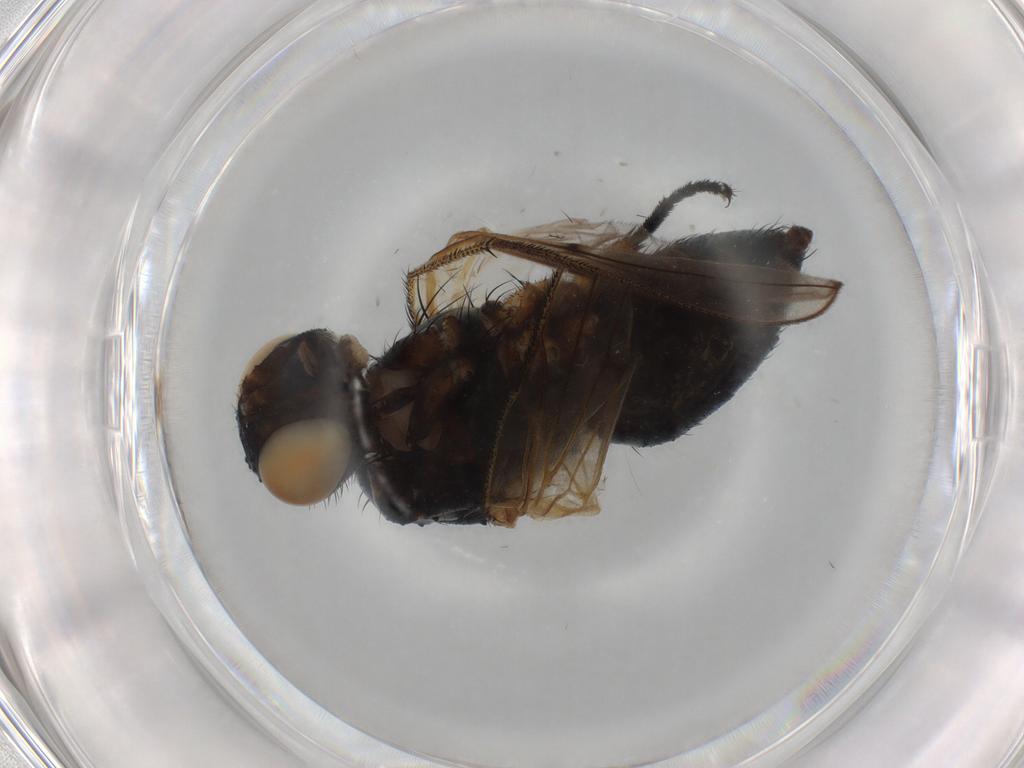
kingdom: Animalia
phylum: Arthropoda
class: Insecta
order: Diptera
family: Muscidae
